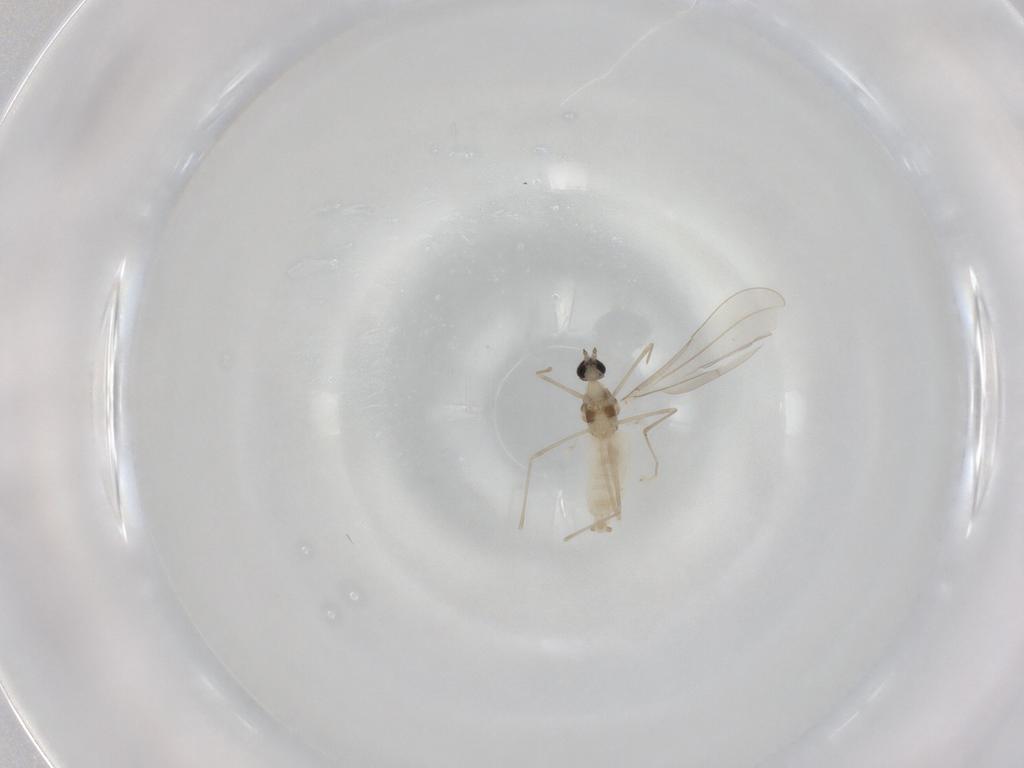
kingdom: Animalia
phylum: Arthropoda
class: Insecta
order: Diptera
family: Cecidomyiidae
